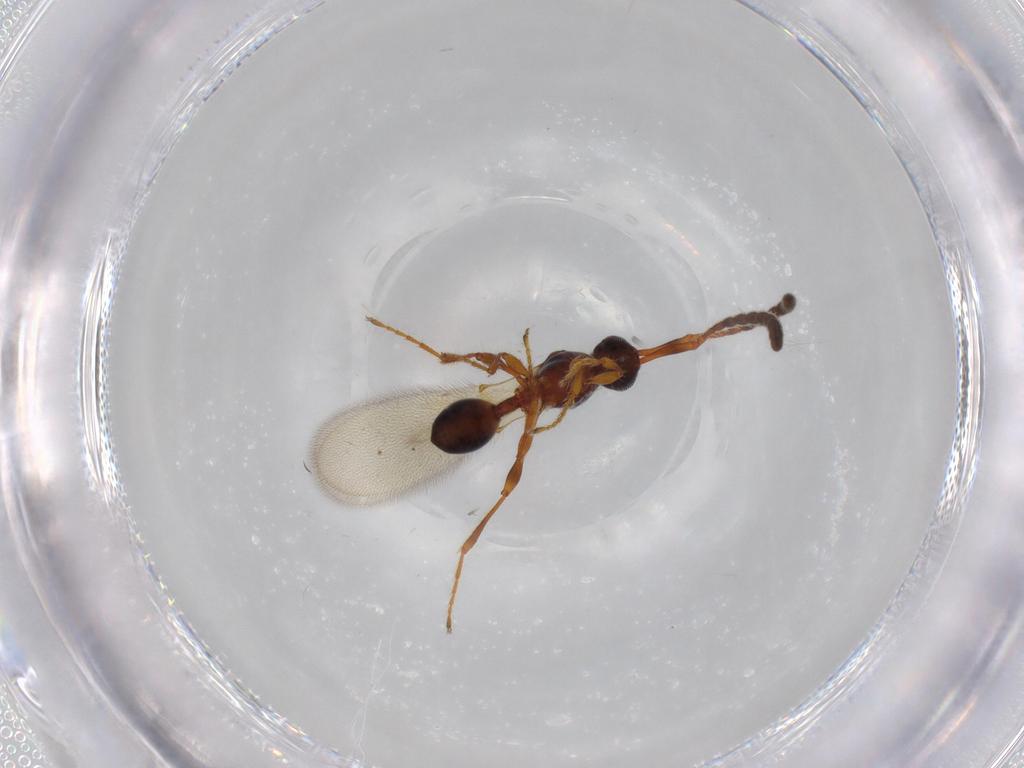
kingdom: Animalia
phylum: Arthropoda
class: Insecta
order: Hymenoptera
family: Diapriidae
